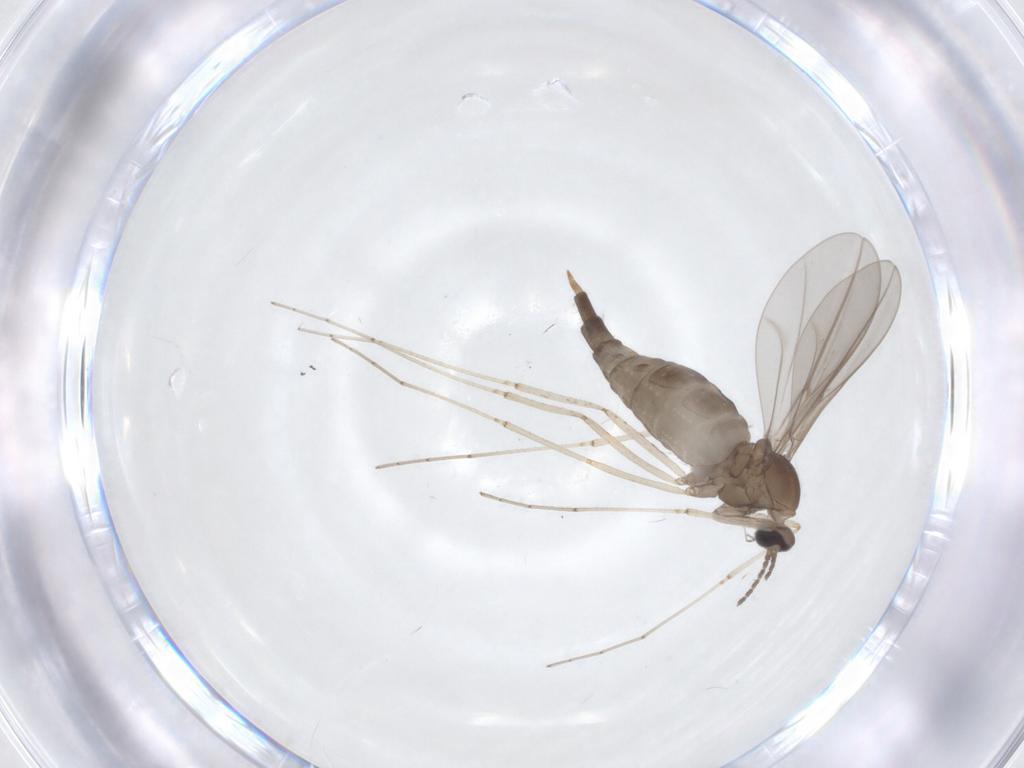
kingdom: Animalia
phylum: Arthropoda
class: Insecta
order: Diptera
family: Cecidomyiidae
